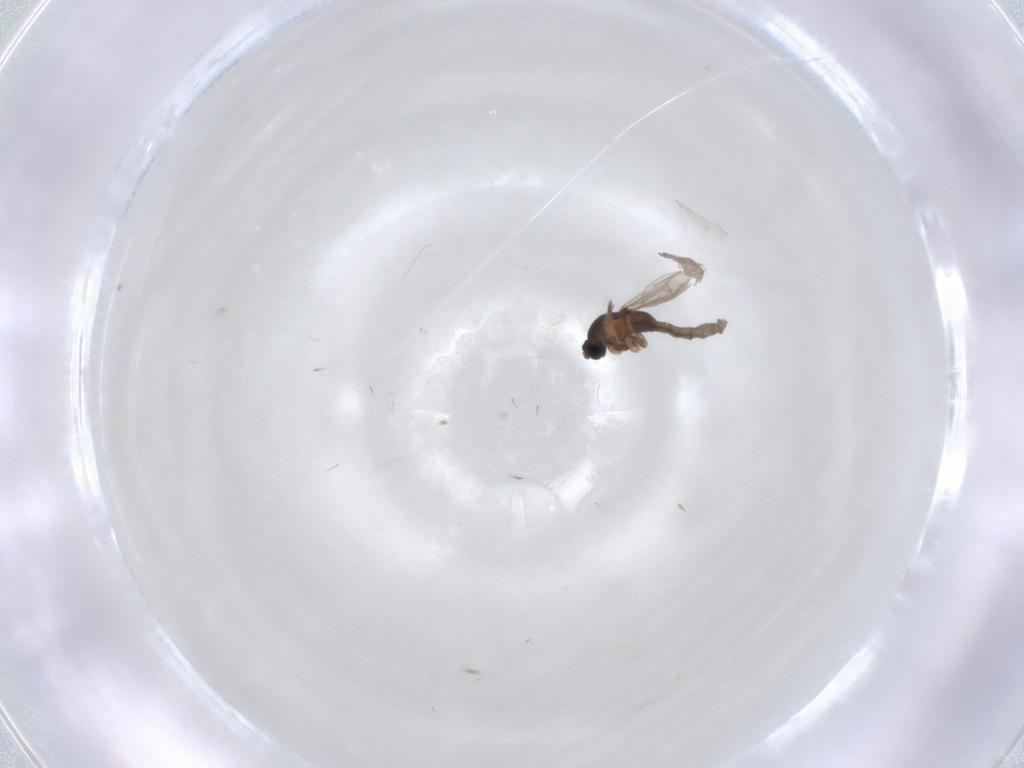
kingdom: Animalia
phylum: Arthropoda
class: Insecta
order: Diptera
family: Cecidomyiidae
